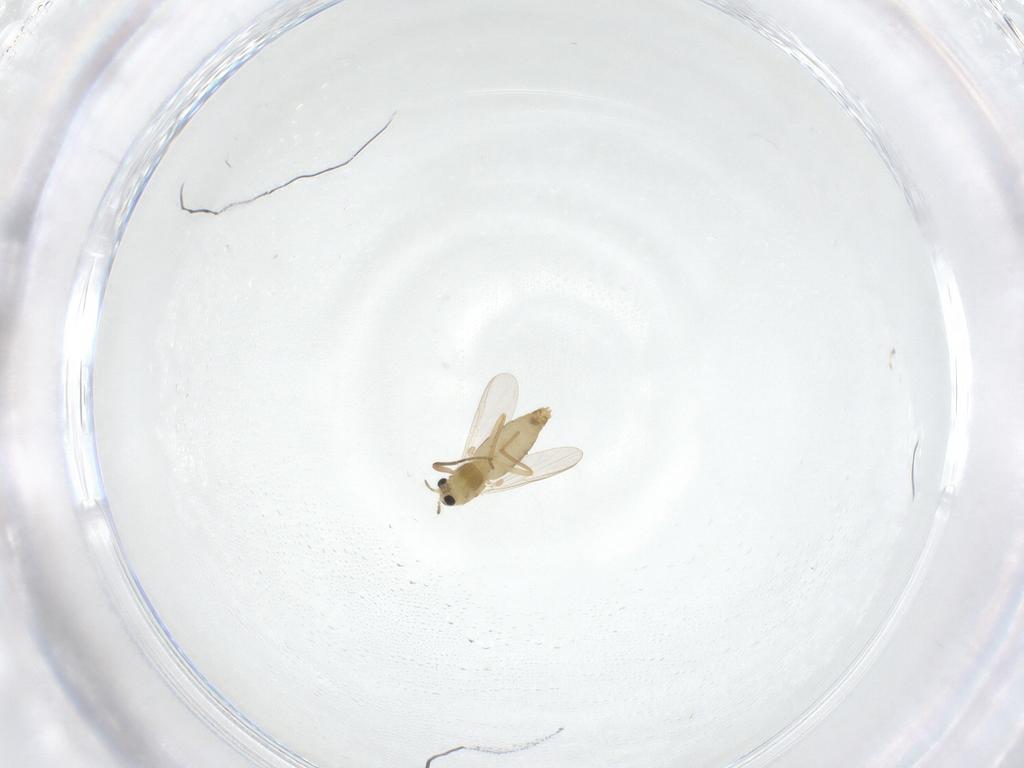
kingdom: Animalia
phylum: Arthropoda
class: Insecta
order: Diptera
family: Chironomidae
